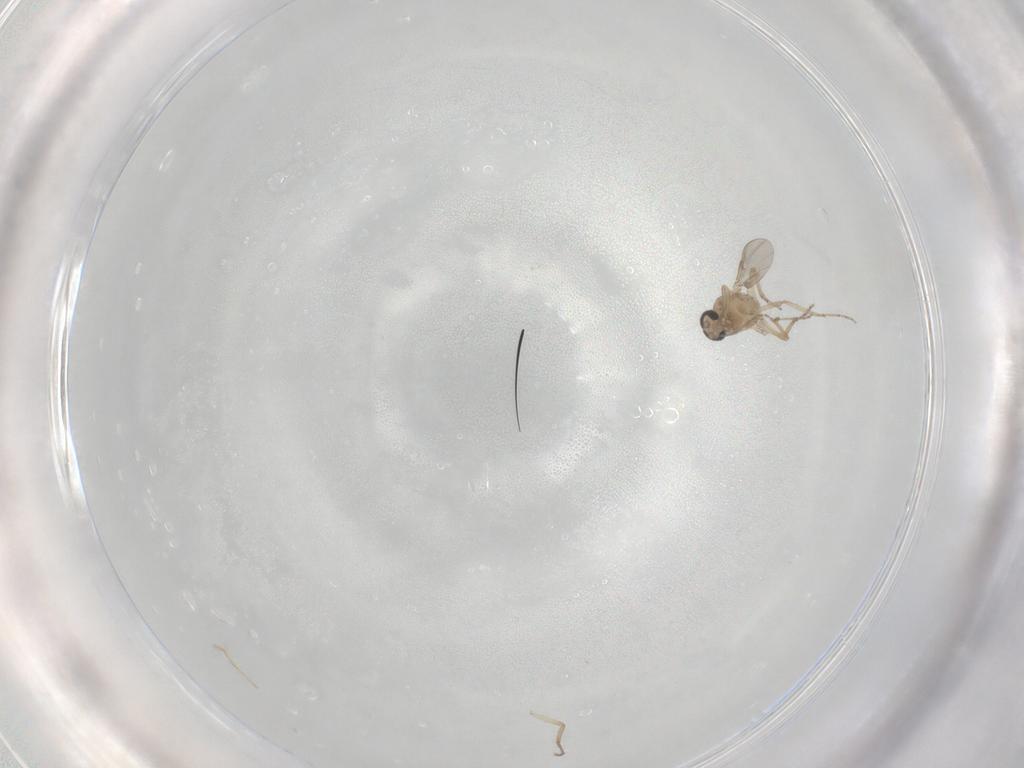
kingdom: Animalia
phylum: Arthropoda
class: Insecta
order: Diptera
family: Ceratopogonidae
